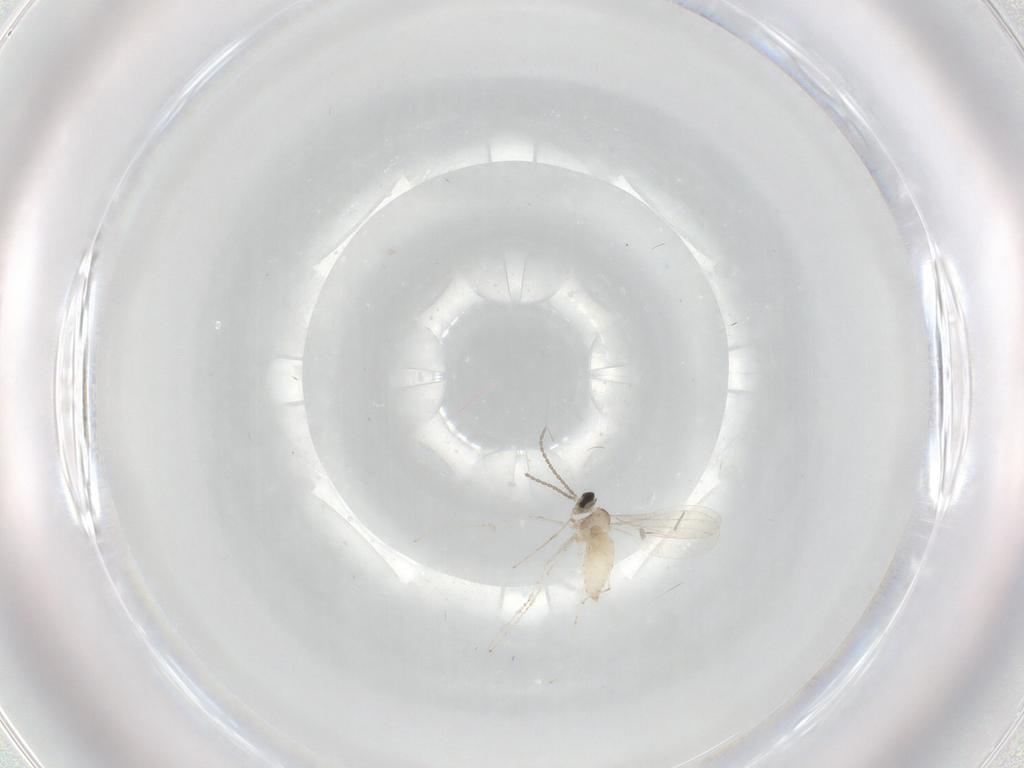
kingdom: Animalia
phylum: Arthropoda
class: Insecta
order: Diptera
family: Cecidomyiidae
